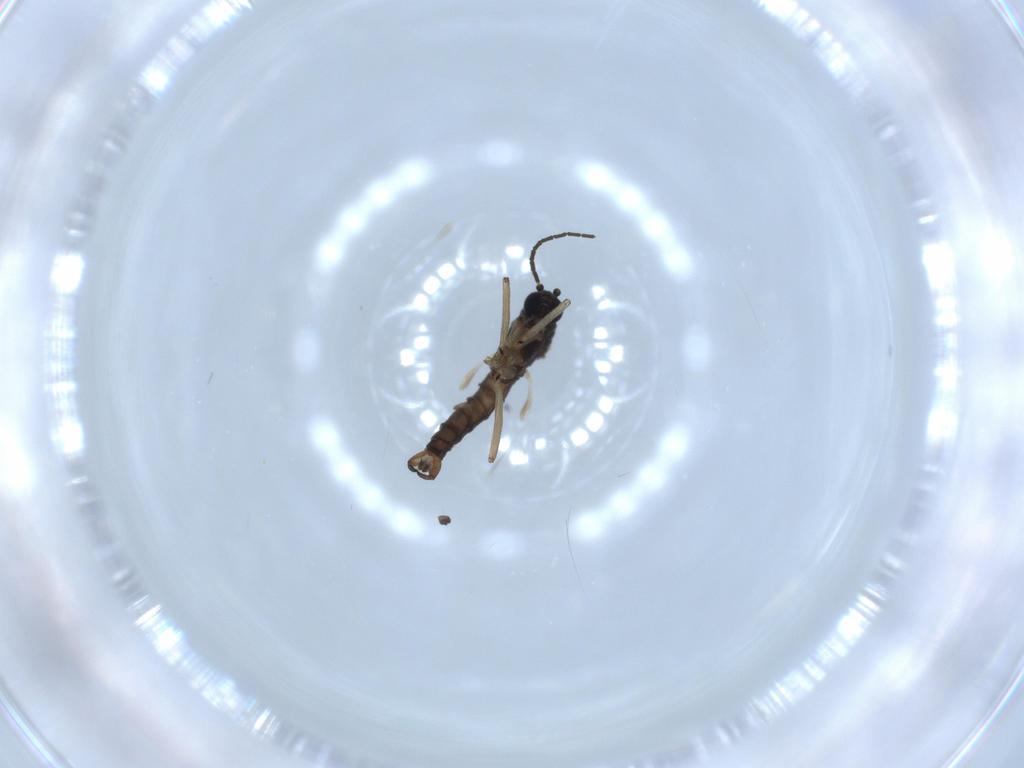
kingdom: Animalia
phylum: Arthropoda
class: Insecta
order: Diptera
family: Sciaridae
